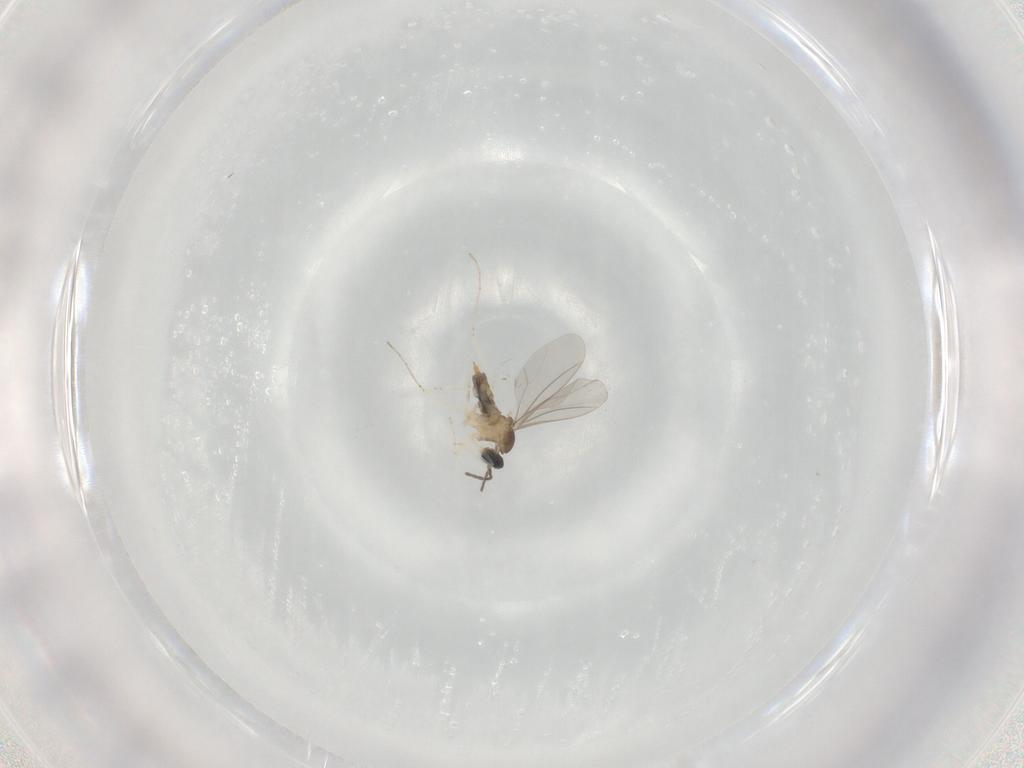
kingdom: Animalia
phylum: Arthropoda
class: Insecta
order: Diptera
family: Cecidomyiidae
